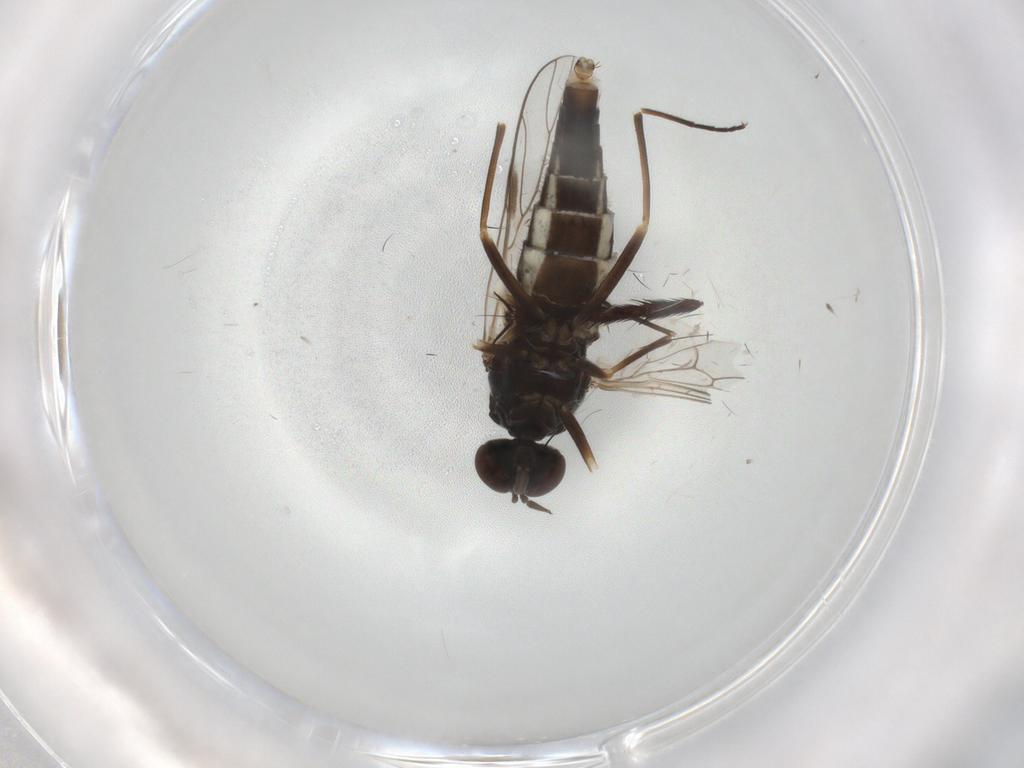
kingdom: Animalia
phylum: Arthropoda
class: Insecta
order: Diptera
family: Scenopinidae
